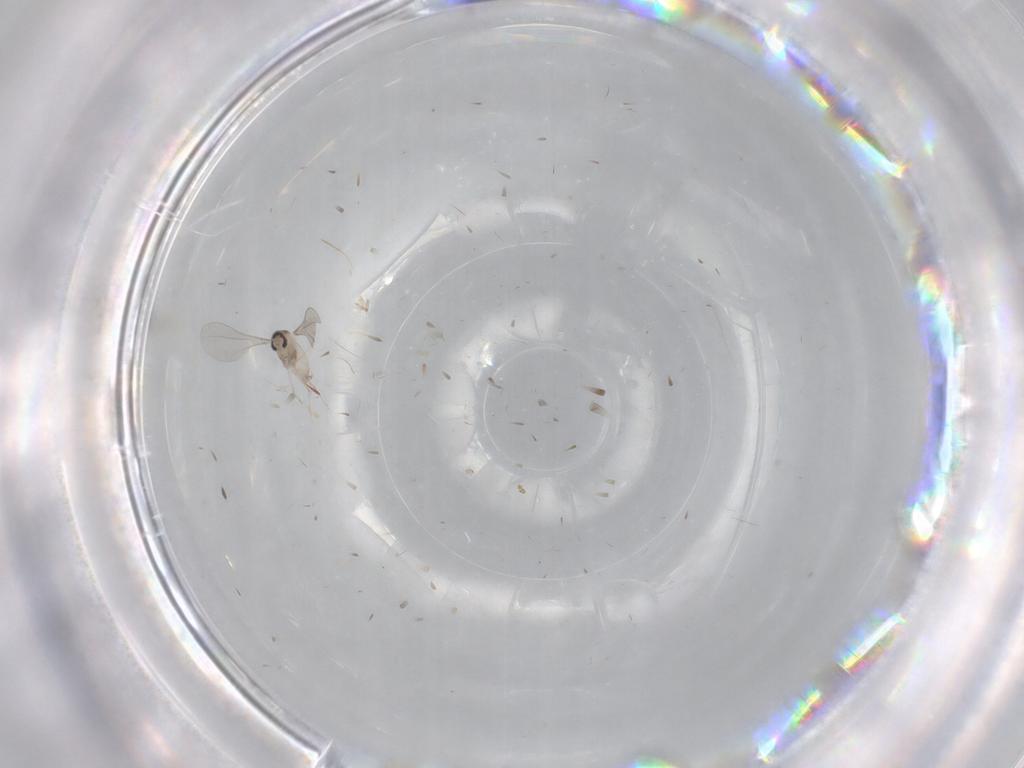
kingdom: Animalia
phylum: Arthropoda
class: Insecta
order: Diptera
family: Cecidomyiidae
